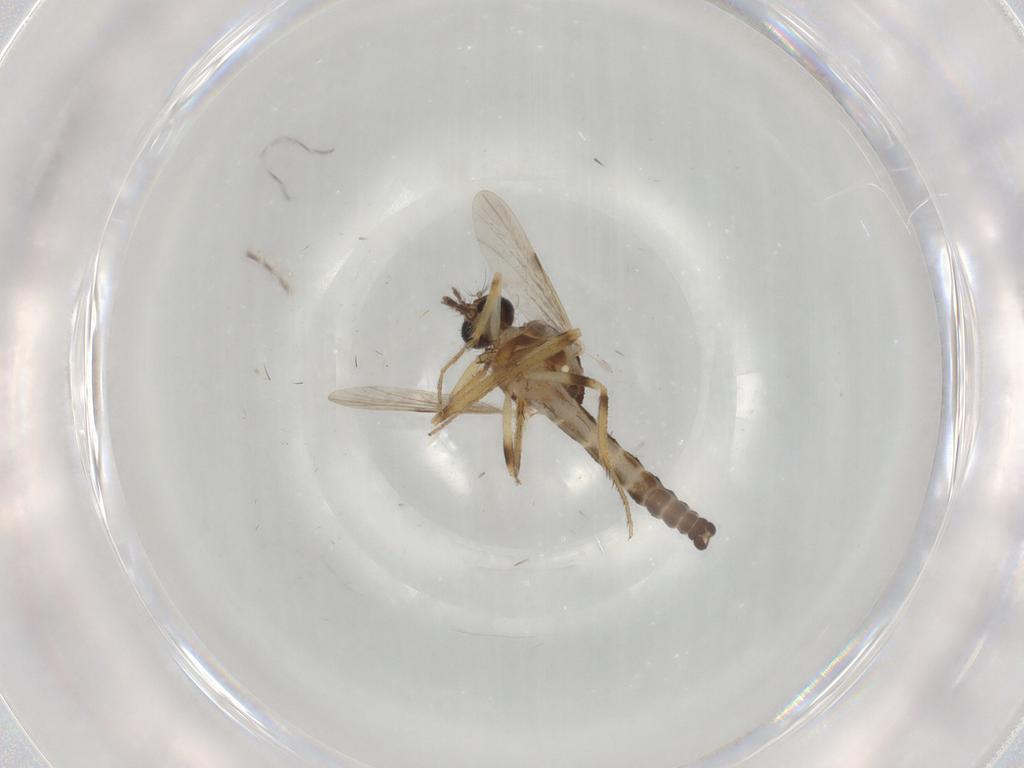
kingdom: Animalia
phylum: Arthropoda
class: Insecta
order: Diptera
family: Ceratopogonidae
